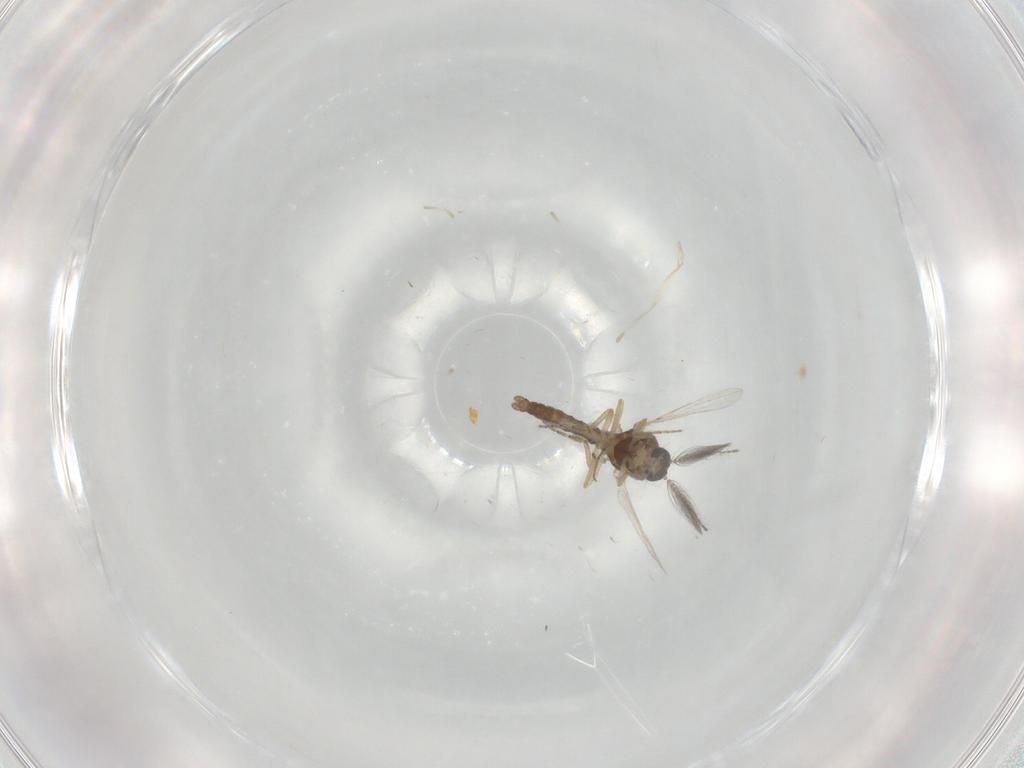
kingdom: Animalia
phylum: Arthropoda
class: Insecta
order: Diptera
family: Ceratopogonidae
